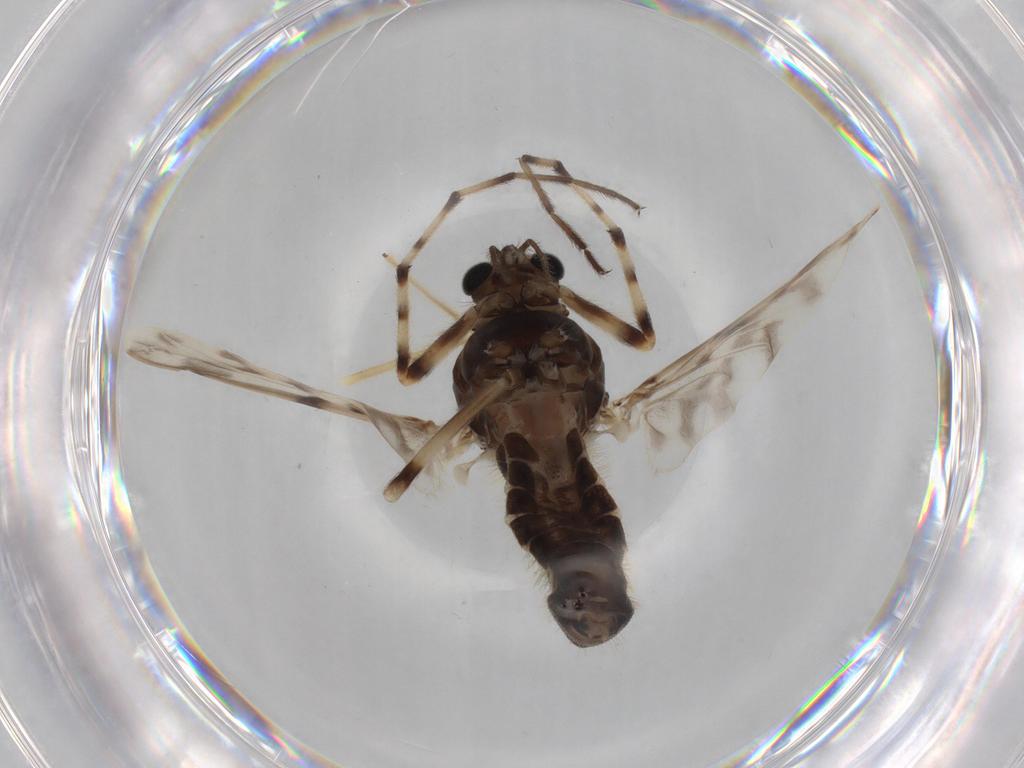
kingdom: Animalia
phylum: Arthropoda
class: Insecta
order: Diptera
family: Chironomidae
